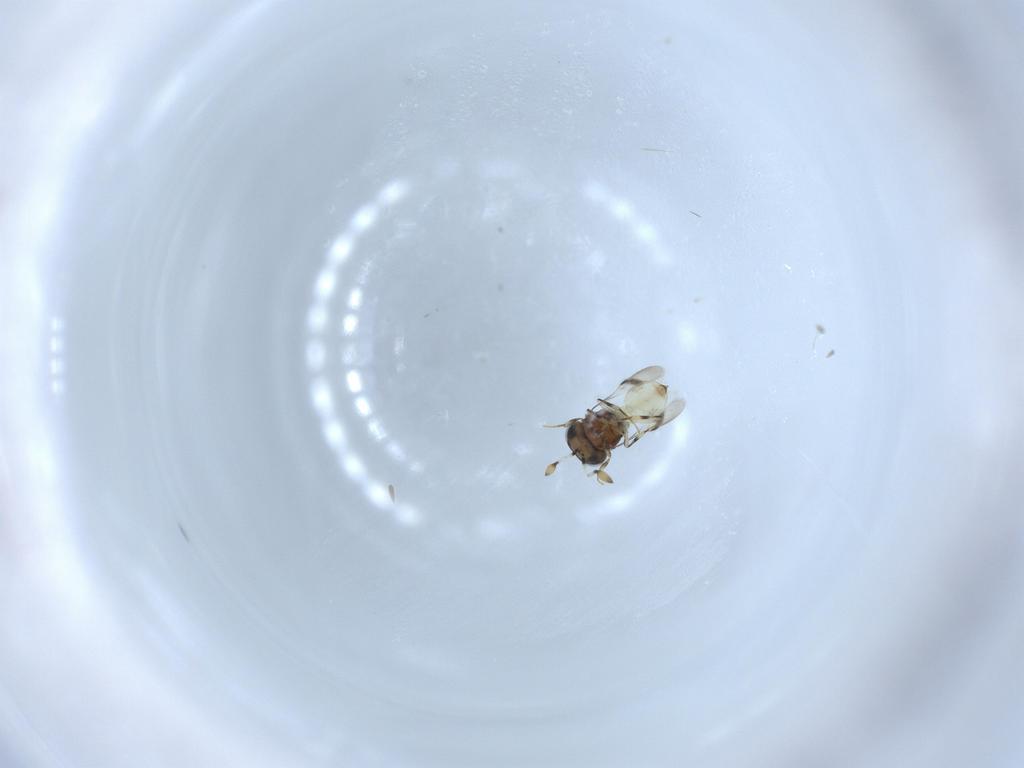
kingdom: Animalia
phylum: Arthropoda
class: Insecta
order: Hymenoptera
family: Scelionidae
